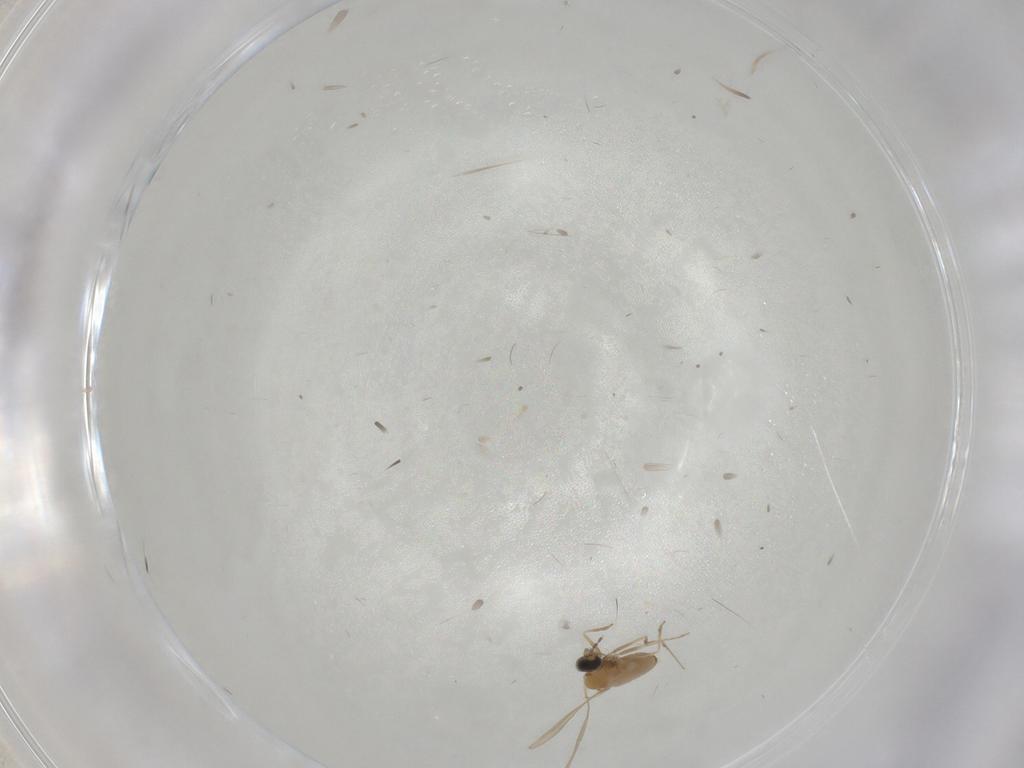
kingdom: Animalia
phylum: Arthropoda
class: Insecta
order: Diptera
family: Cecidomyiidae
